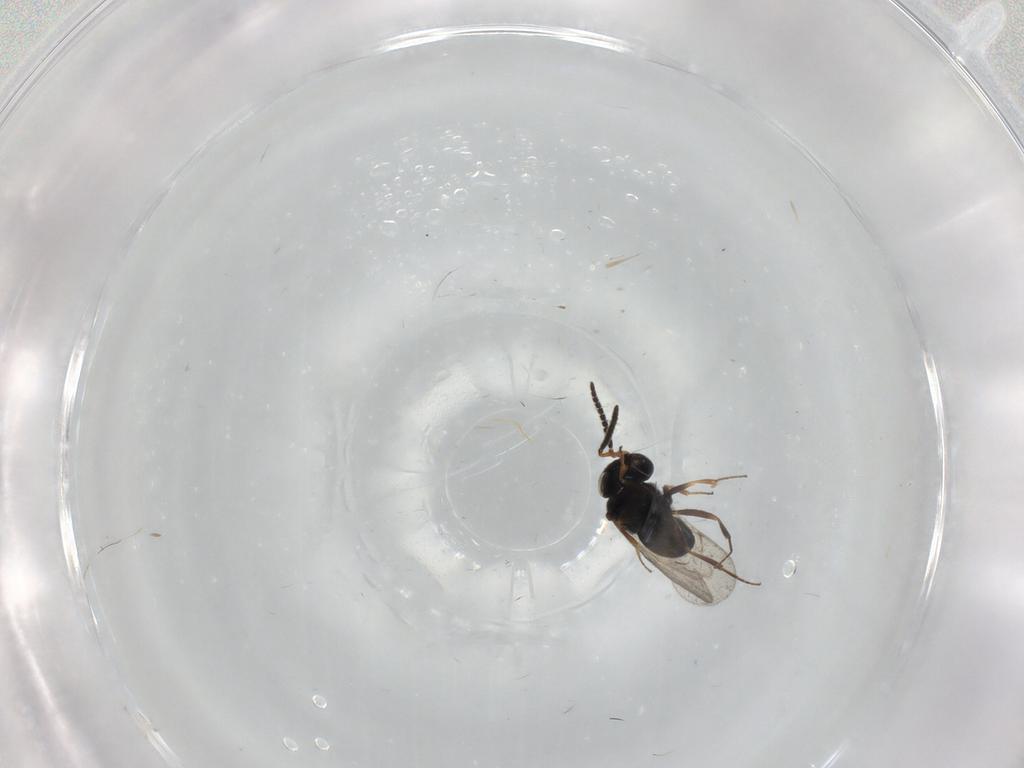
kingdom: Animalia
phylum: Arthropoda
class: Insecta
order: Hymenoptera
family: Scelionidae
